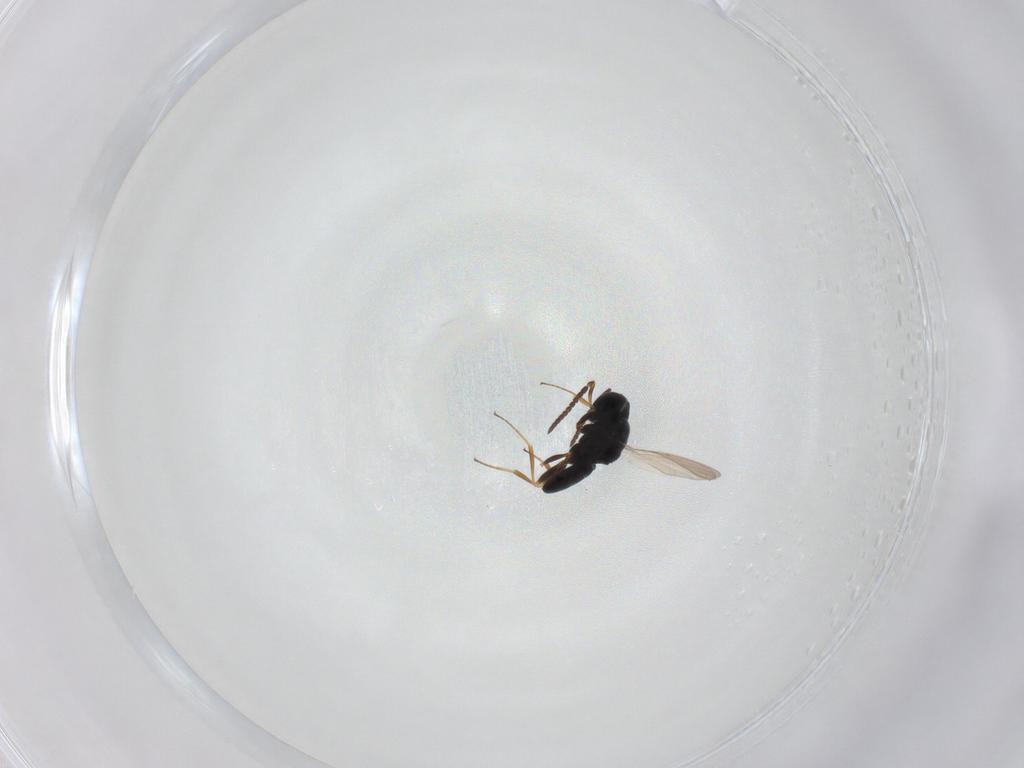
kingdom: Animalia
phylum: Arthropoda
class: Insecta
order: Hymenoptera
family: Scelionidae
